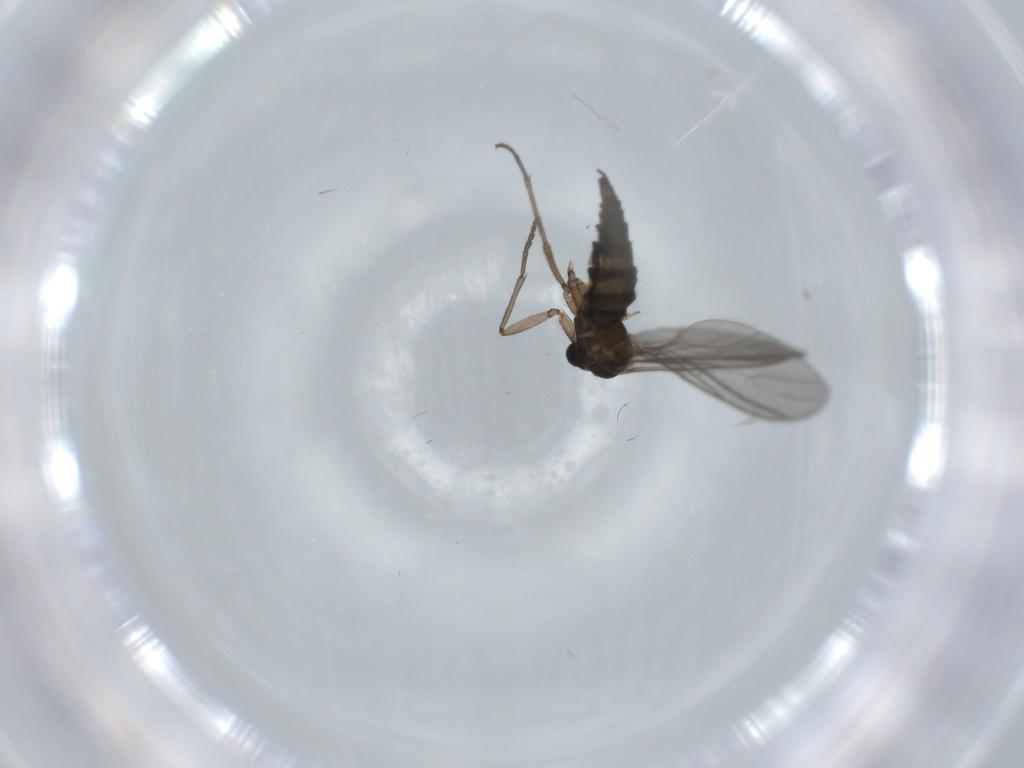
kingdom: Animalia
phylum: Arthropoda
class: Insecta
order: Diptera
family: Sciaridae
